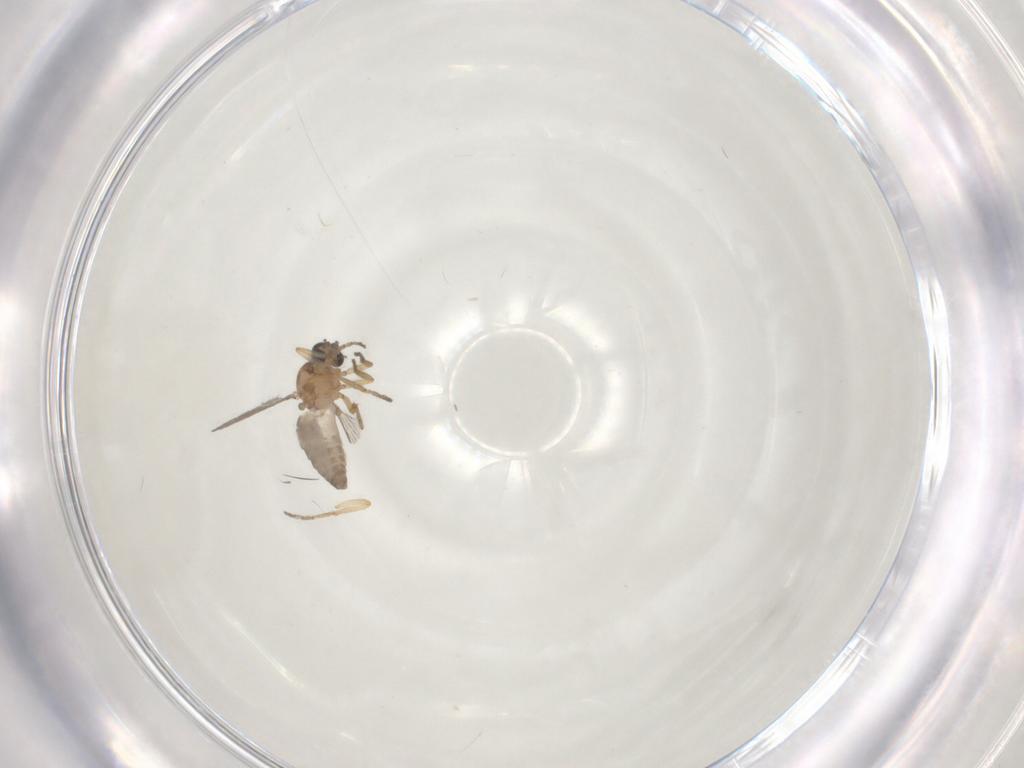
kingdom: Animalia
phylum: Arthropoda
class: Insecta
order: Diptera
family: Ceratopogonidae
